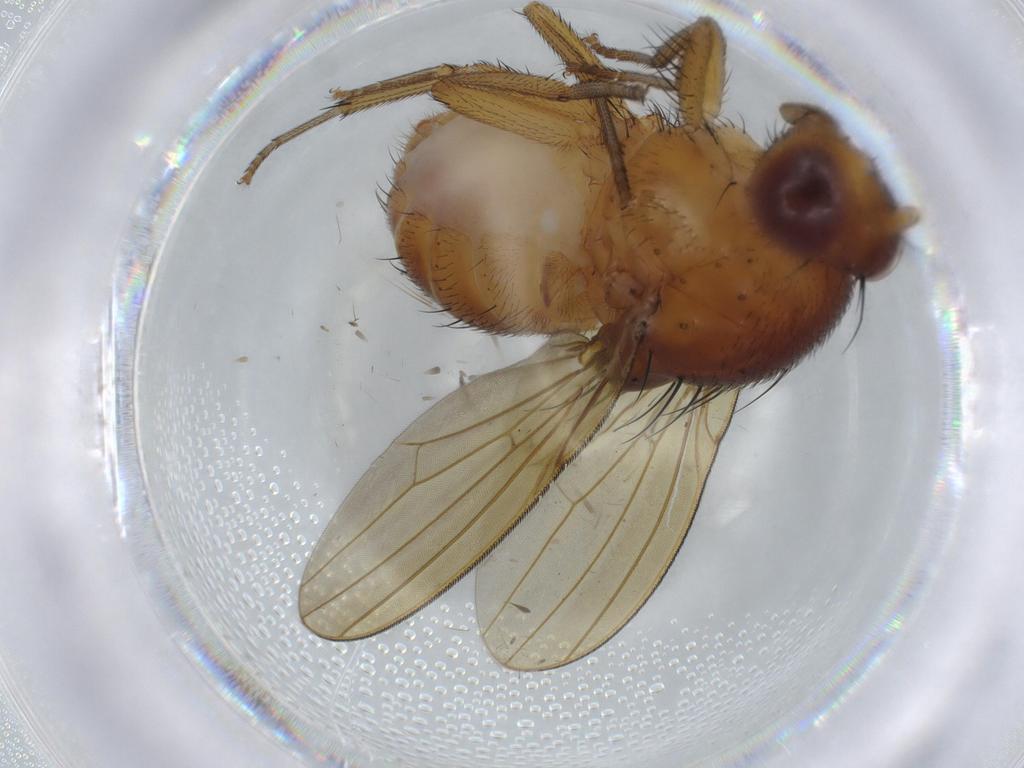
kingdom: Animalia
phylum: Arthropoda
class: Insecta
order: Diptera
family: Cecidomyiidae
